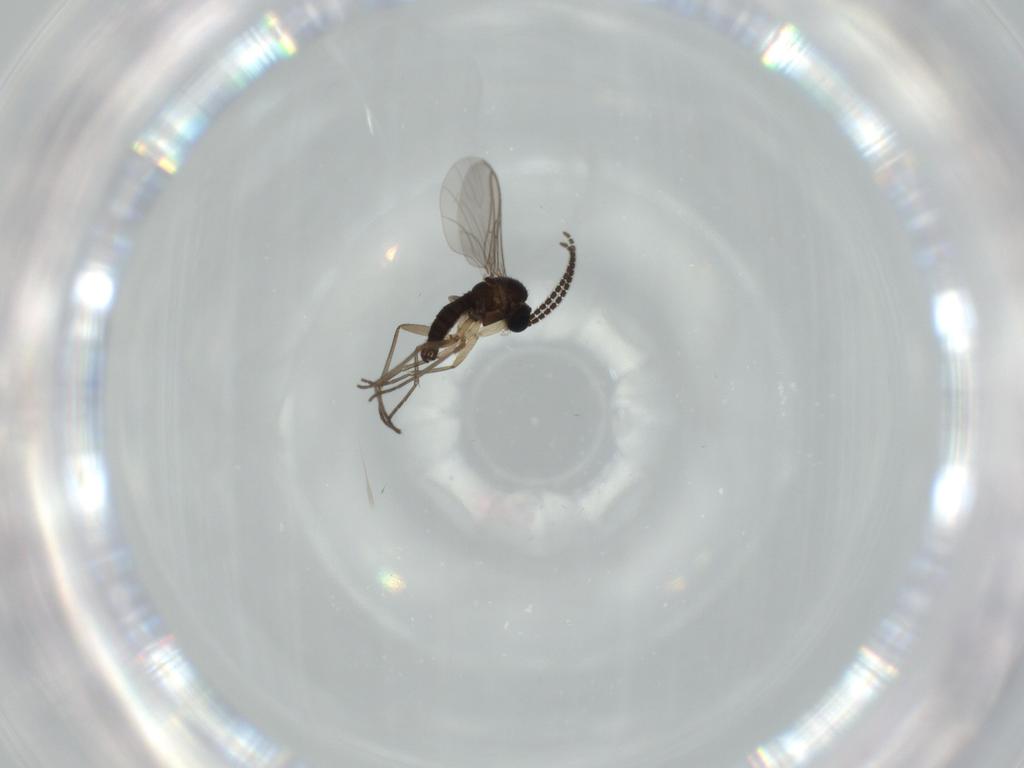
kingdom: Animalia
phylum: Arthropoda
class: Insecta
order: Diptera
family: Sciaridae
